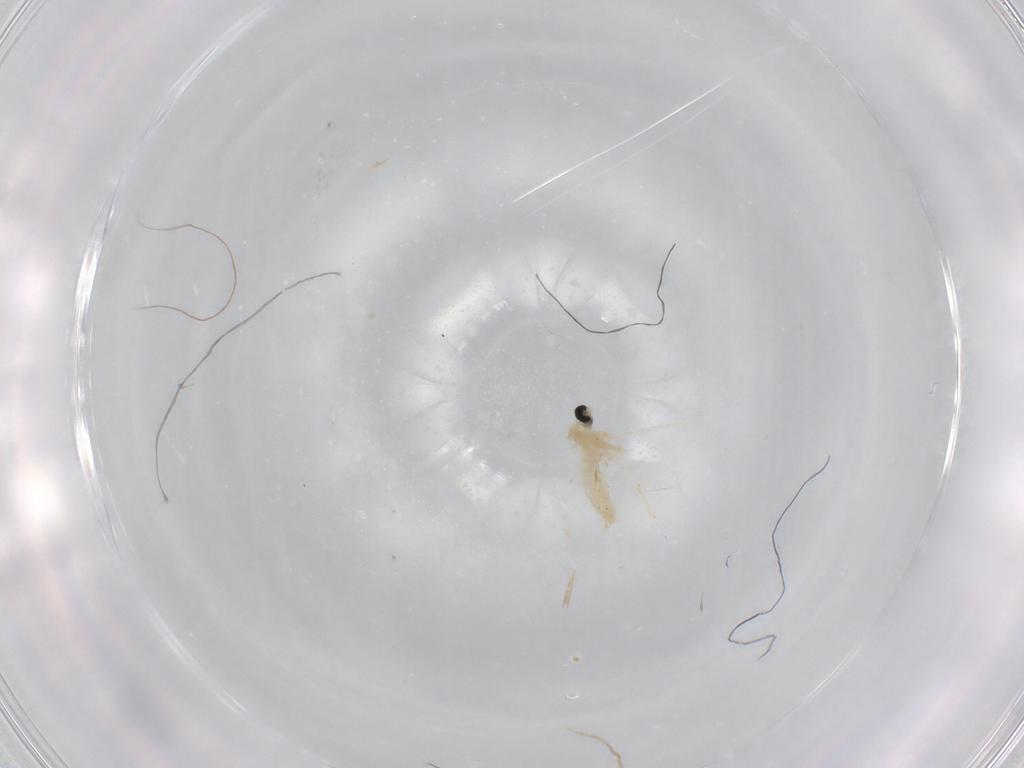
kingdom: Animalia
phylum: Arthropoda
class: Insecta
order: Diptera
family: Cecidomyiidae
